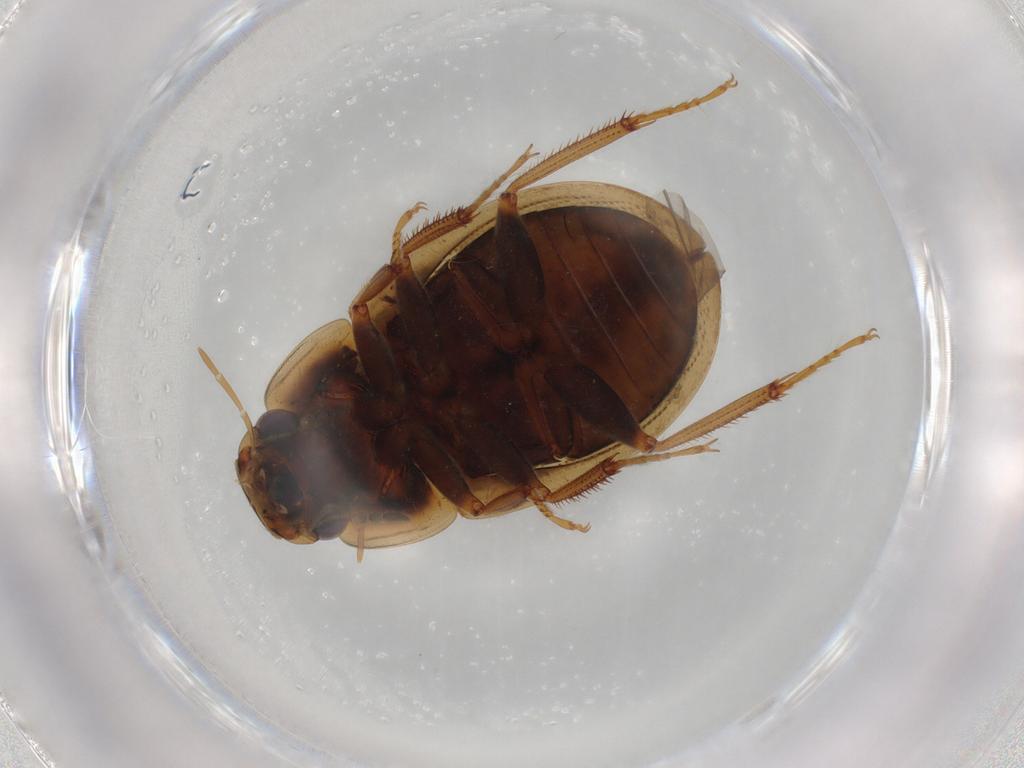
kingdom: Animalia
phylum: Arthropoda
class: Insecta
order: Coleoptera
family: Hydrophilidae
